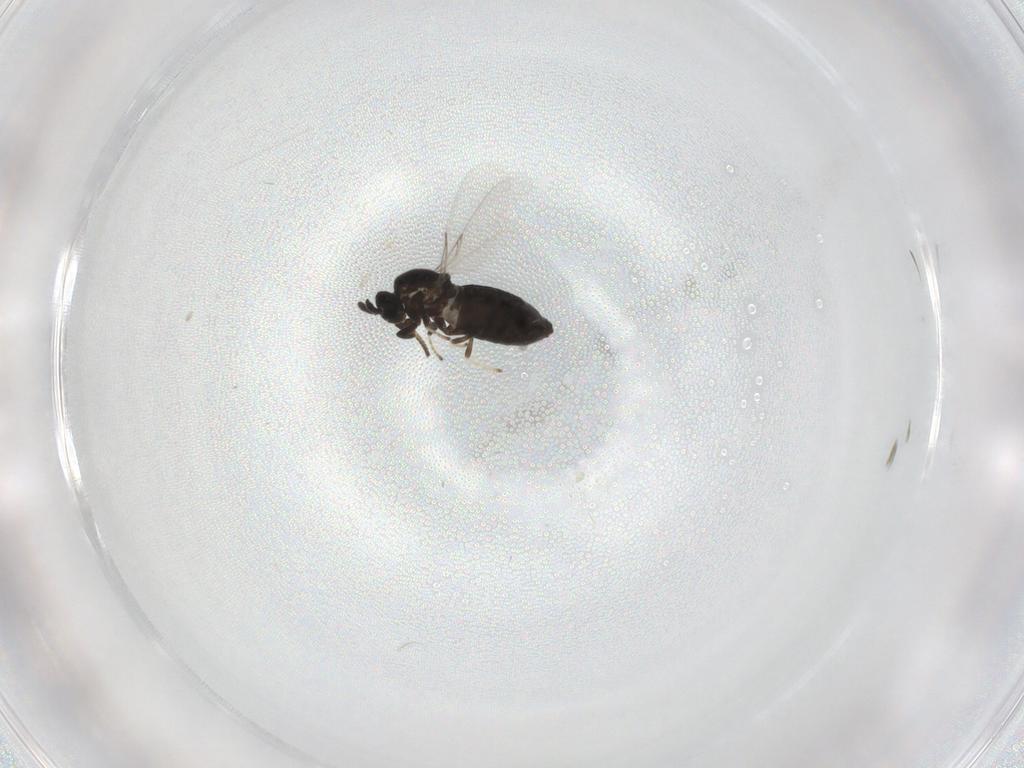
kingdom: Animalia
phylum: Arthropoda
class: Insecta
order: Diptera
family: Scatopsidae
